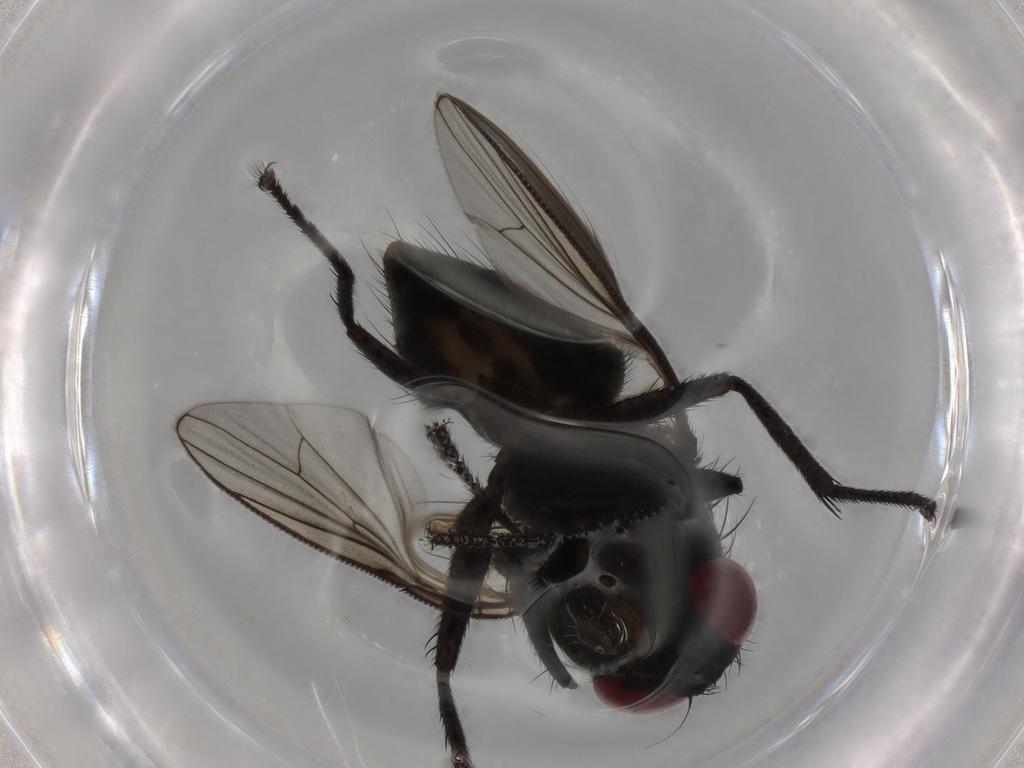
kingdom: Animalia
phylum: Arthropoda
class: Insecta
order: Diptera
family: Muscidae
